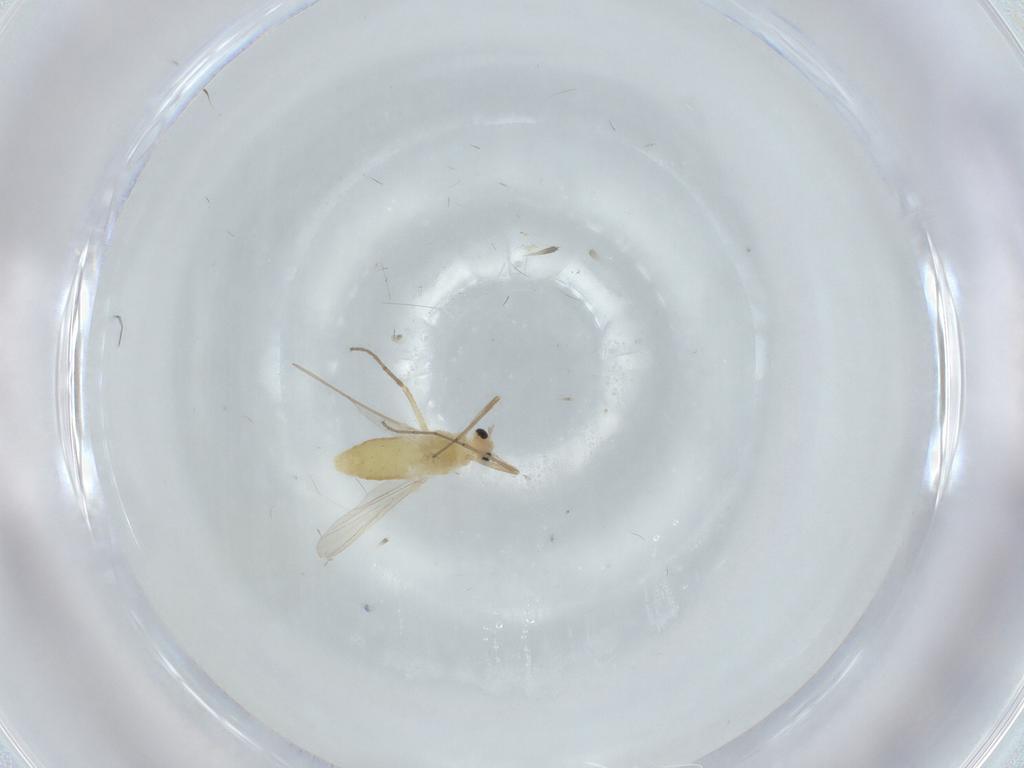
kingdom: Animalia
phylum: Arthropoda
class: Insecta
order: Diptera
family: Chironomidae
